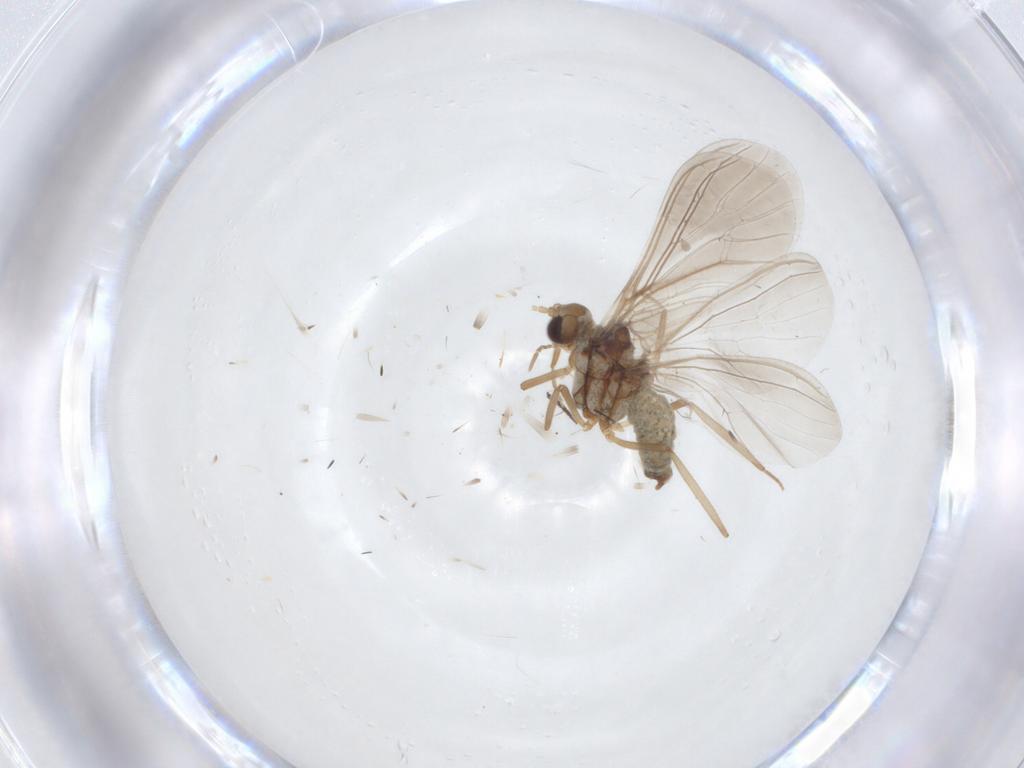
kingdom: Animalia
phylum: Arthropoda
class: Insecta
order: Neuroptera
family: Coniopterygidae
